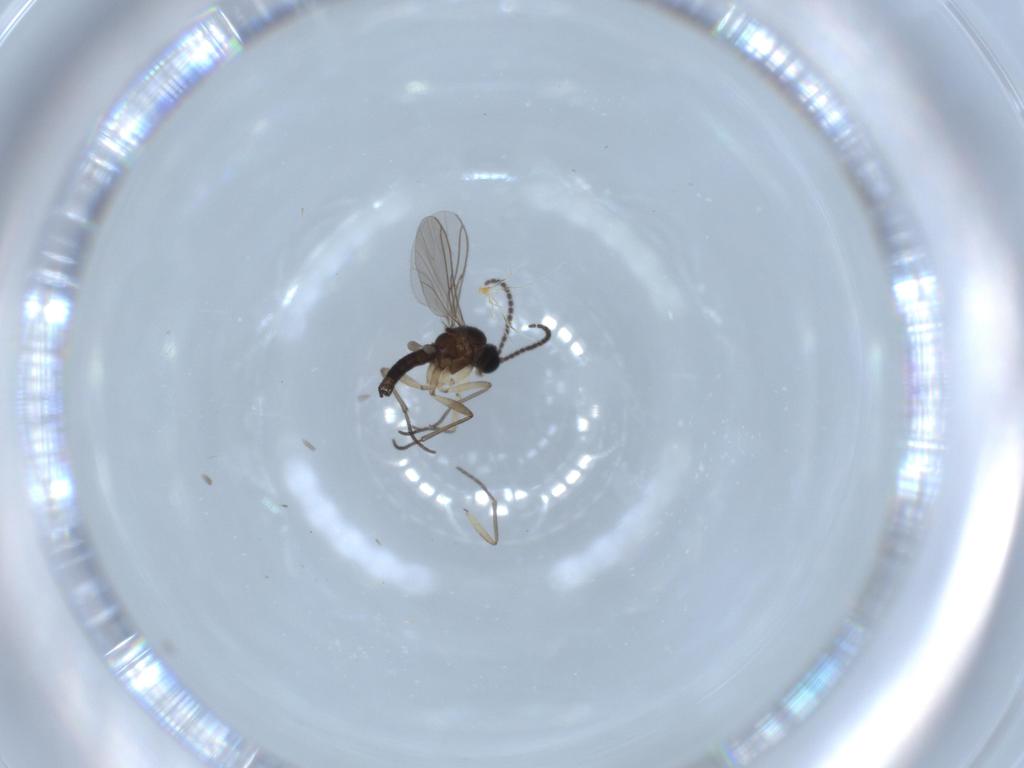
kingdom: Animalia
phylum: Arthropoda
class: Insecta
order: Diptera
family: Sciaridae
